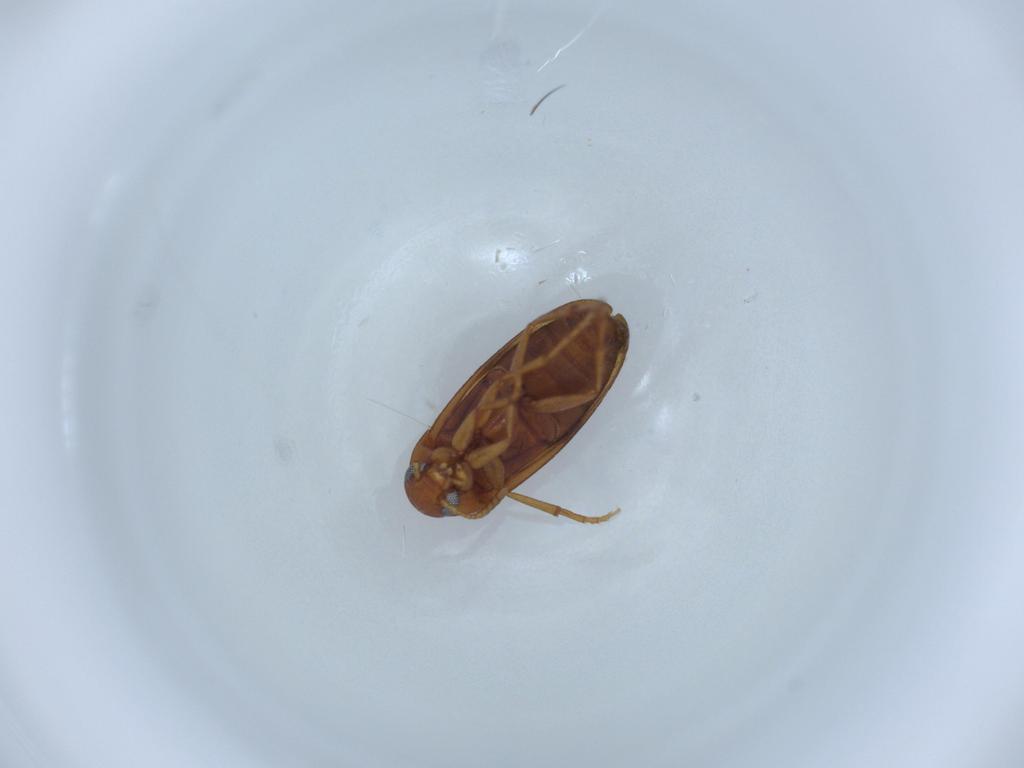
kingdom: Animalia
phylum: Arthropoda
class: Insecta
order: Coleoptera
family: Scraptiidae
